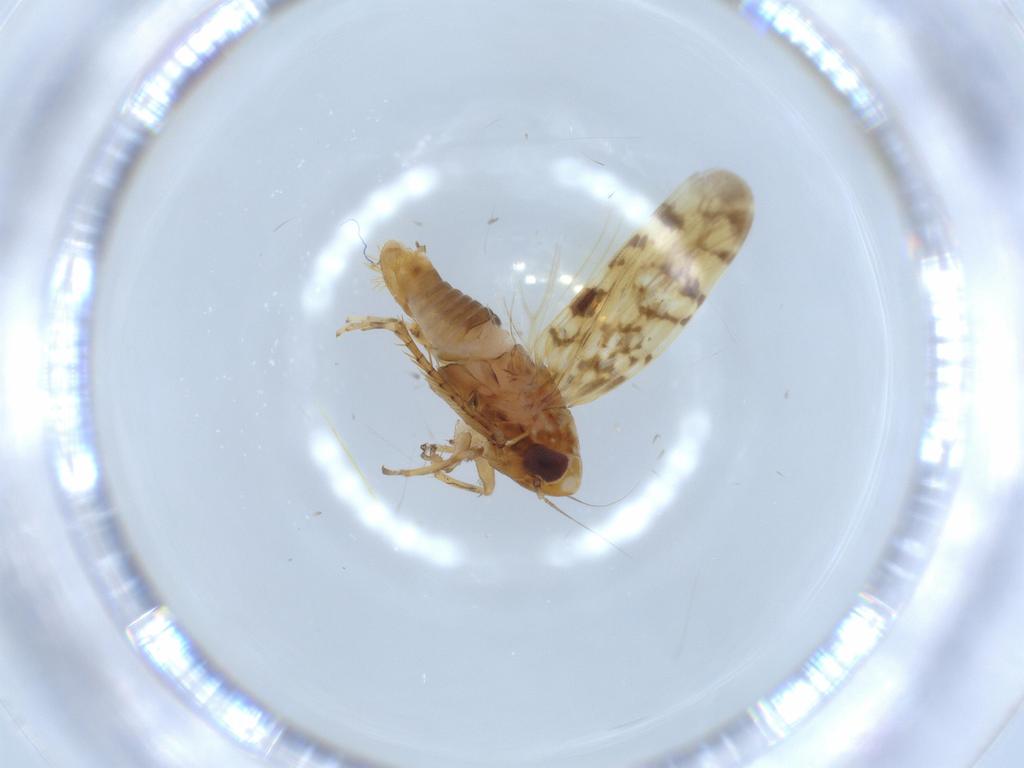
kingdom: Animalia
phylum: Arthropoda
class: Insecta
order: Hemiptera
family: Cicadellidae
